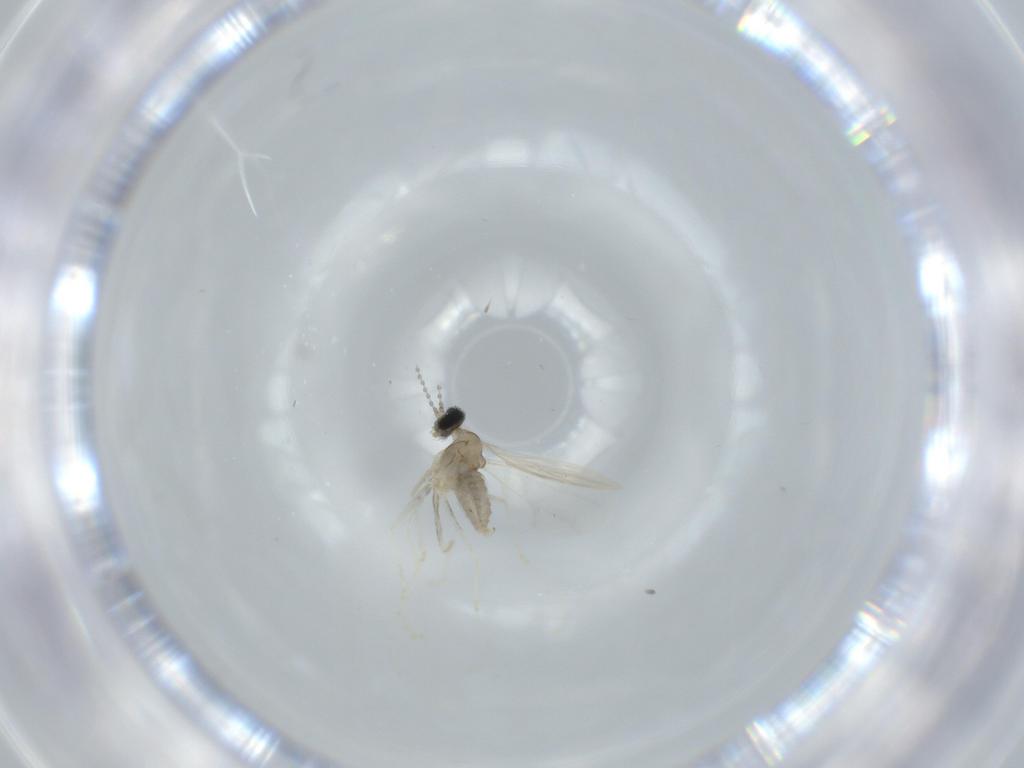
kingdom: Animalia
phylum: Arthropoda
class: Insecta
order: Diptera
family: Cecidomyiidae
